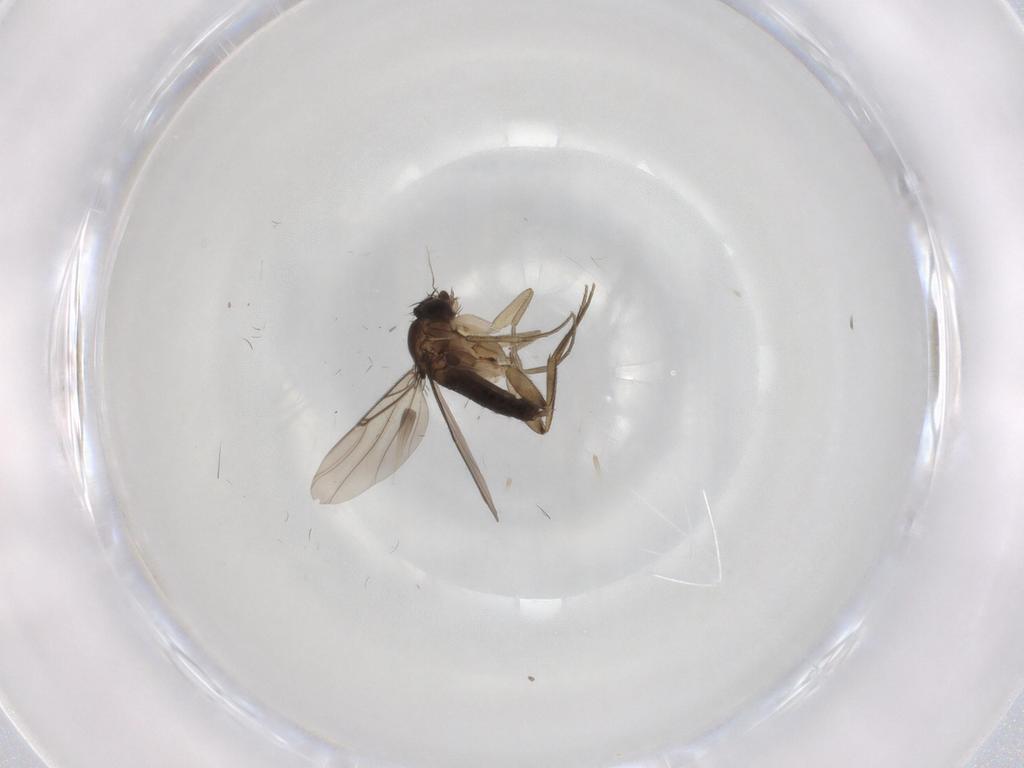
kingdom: Animalia
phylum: Arthropoda
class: Insecta
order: Diptera
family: Phoridae
